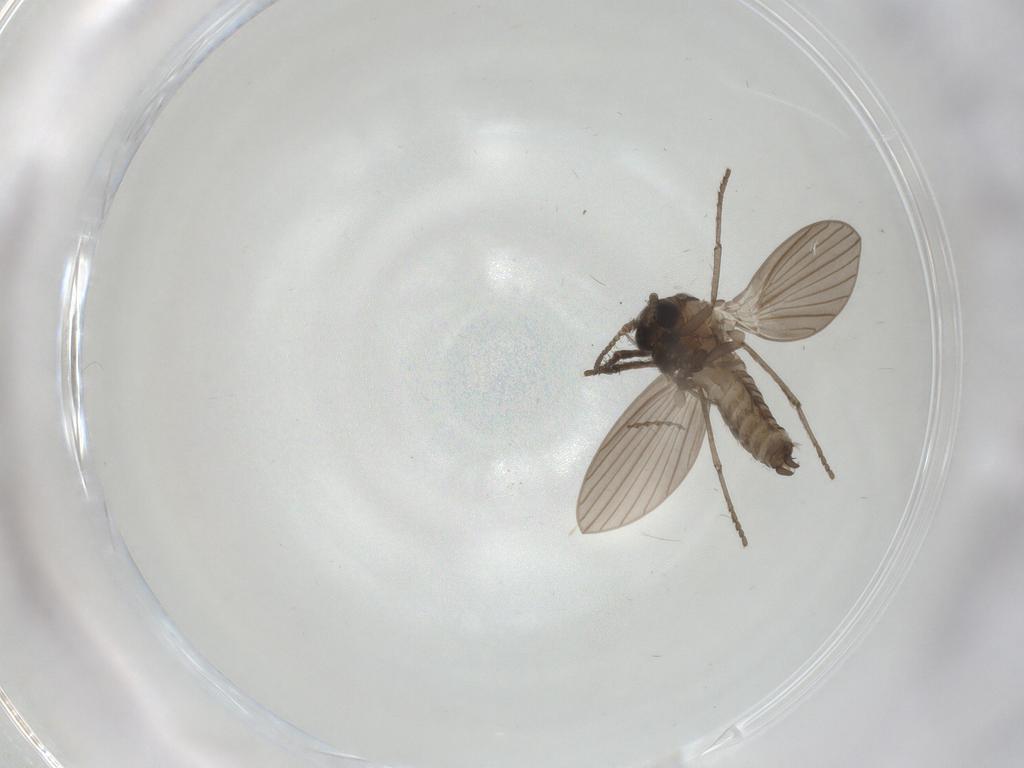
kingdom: Animalia
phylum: Arthropoda
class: Insecta
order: Diptera
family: Psychodidae
